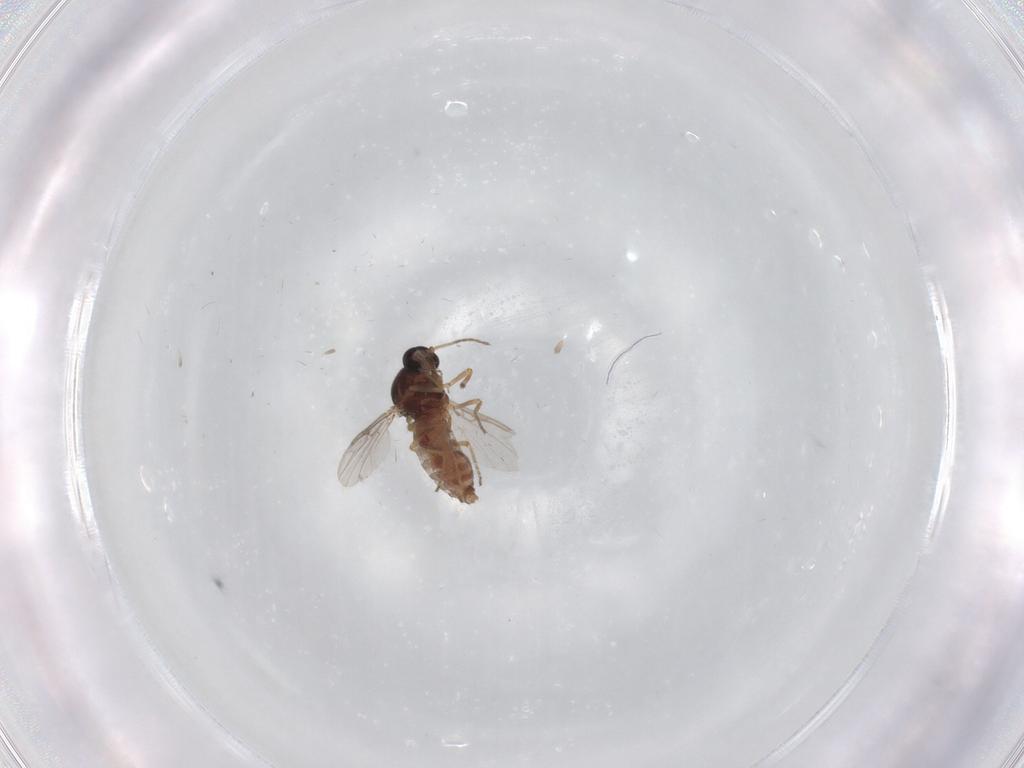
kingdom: Animalia
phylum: Arthropoda
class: Insecta
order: Diptera
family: Ceratopogonidae
